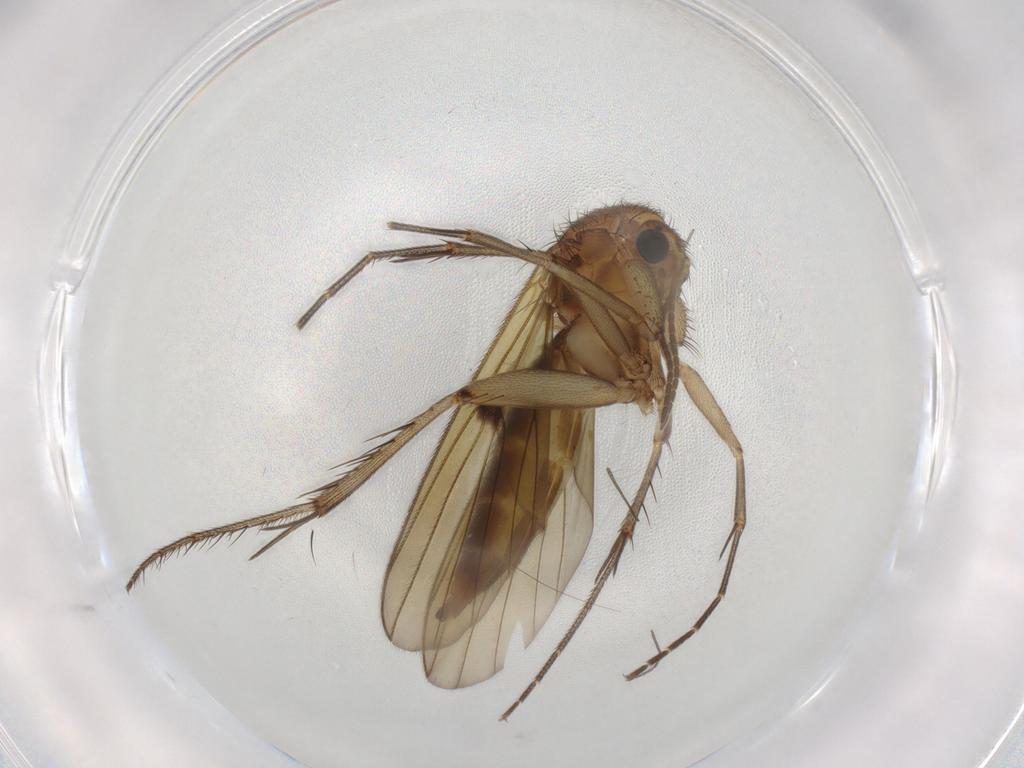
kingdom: Animalia
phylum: Arthropoda
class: Insecta
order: Diptera
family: Mycetophilidae
